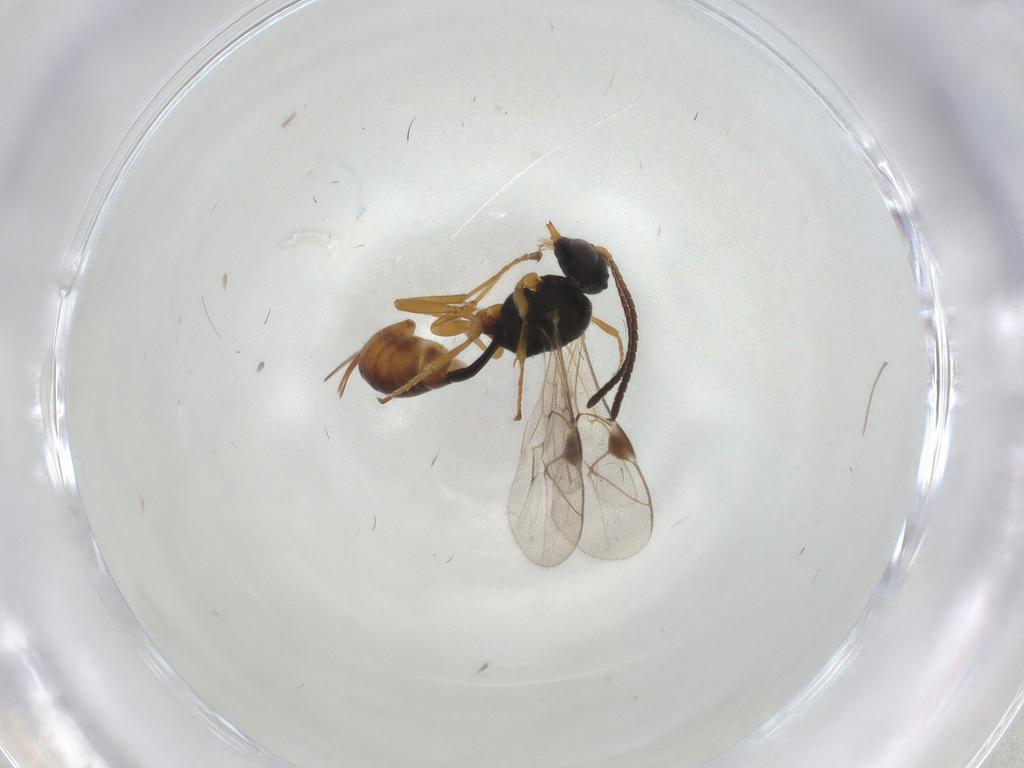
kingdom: Animalia
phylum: Arthropoda
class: Insecta
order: Hymenoptera
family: Ichneumonidae
